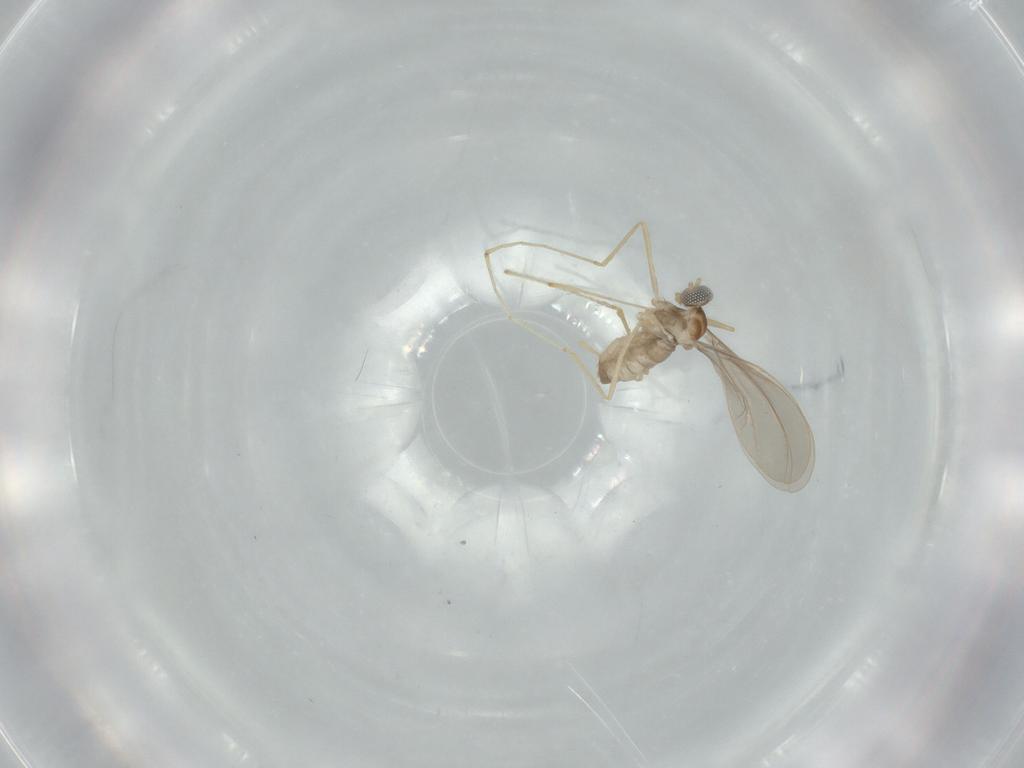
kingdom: Animalia
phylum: Arthropoda
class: Insecta
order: Diptera
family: Cecidomyiidae
